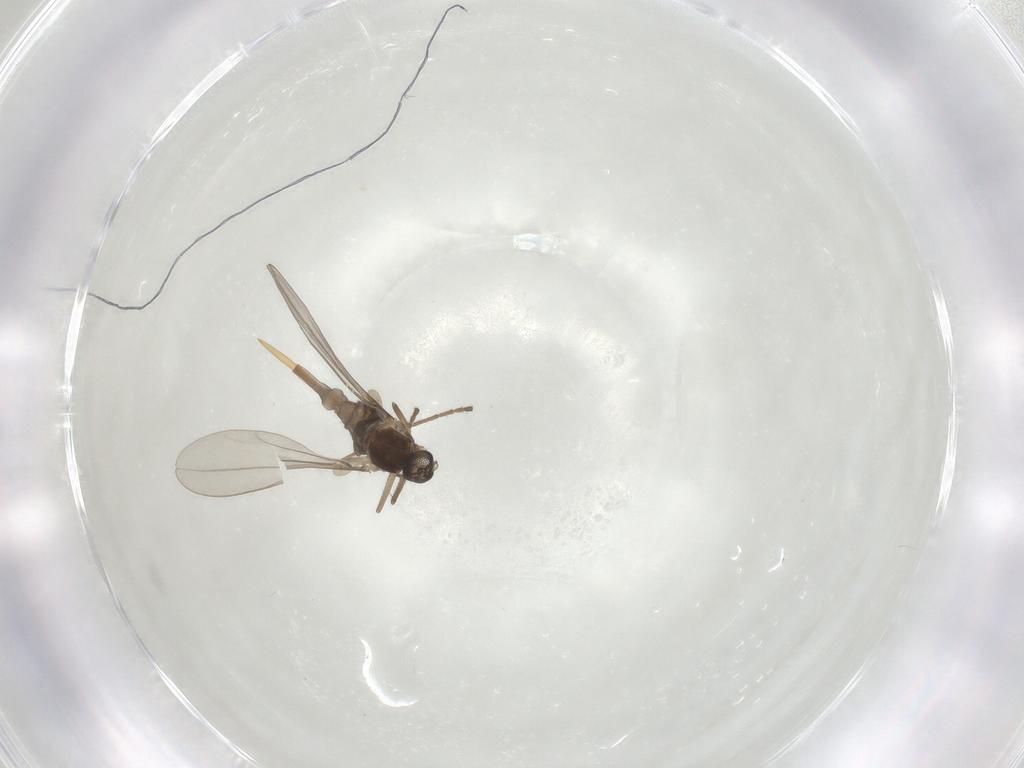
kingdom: Animalia
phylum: Arthropoda
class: Insecta
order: Diptera
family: Cecidomyiidae
